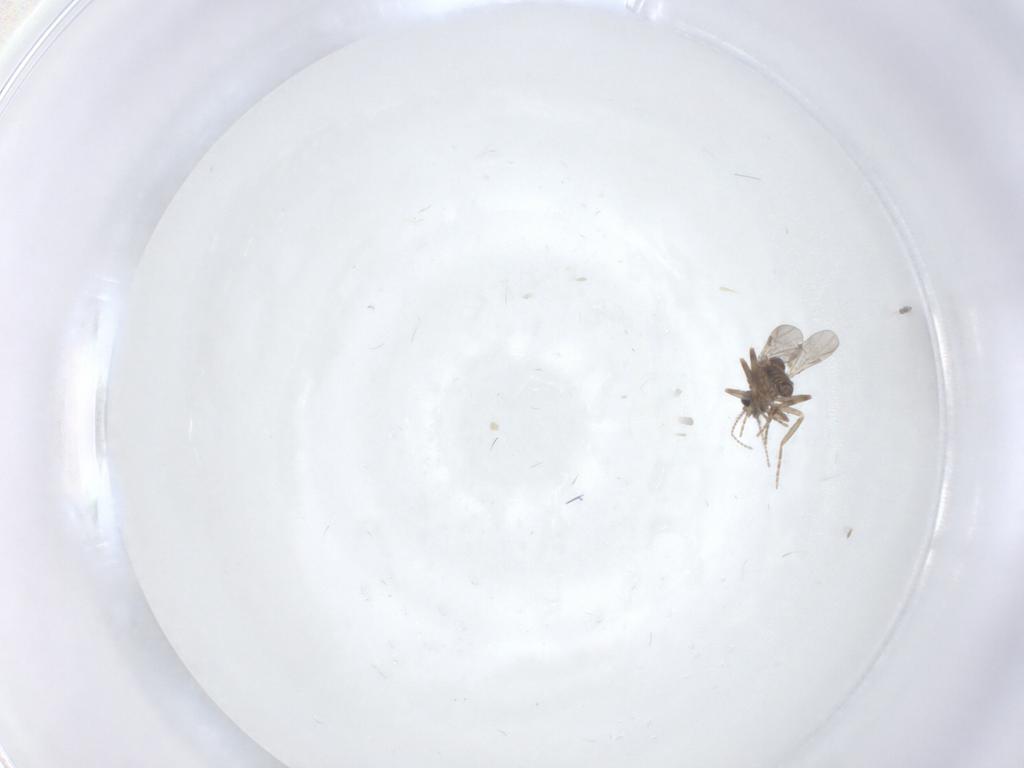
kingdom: Animalia
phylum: Arthropoda
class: Insecta
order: Diptera
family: Ceratopogonidae
